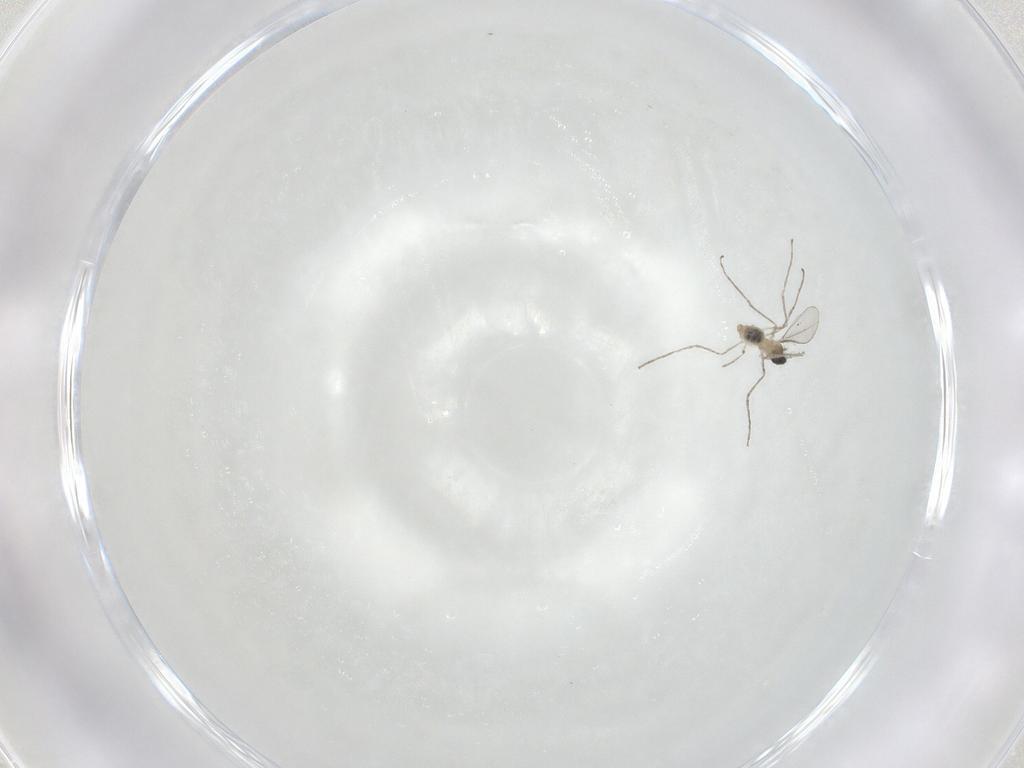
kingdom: Animalia
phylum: Arthropoda
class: Insecta
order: Diptera
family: Cecidomyiidae
